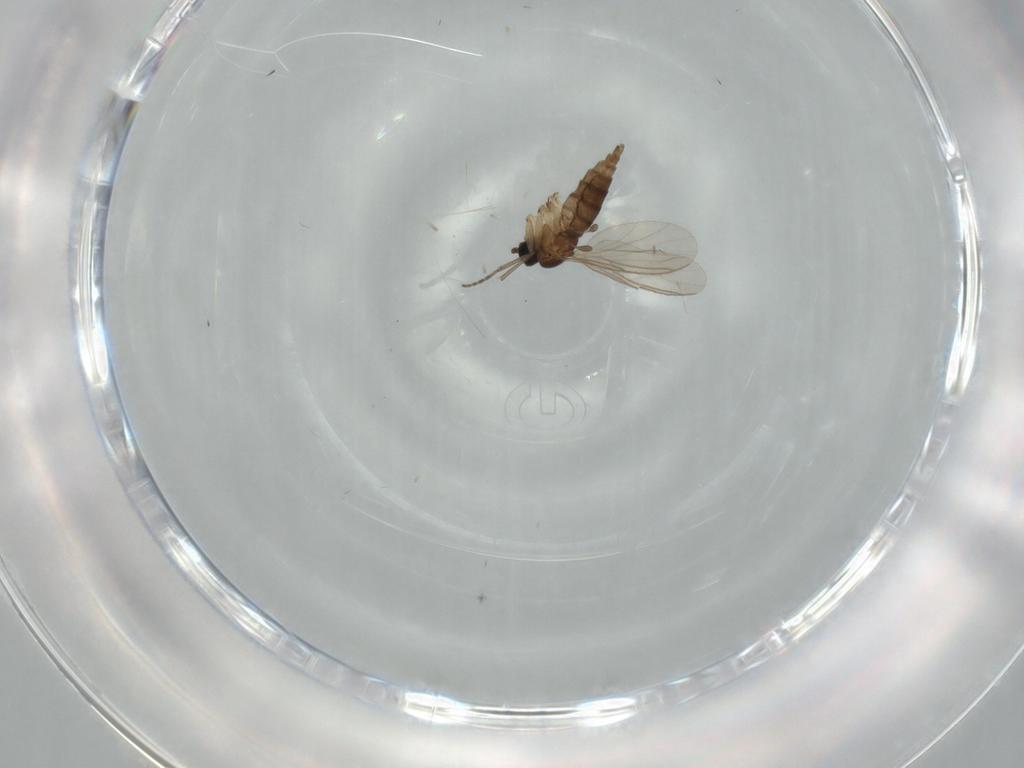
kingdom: Animalia
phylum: Arthropoda
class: Insecta
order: Diptera
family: Sciaridae
